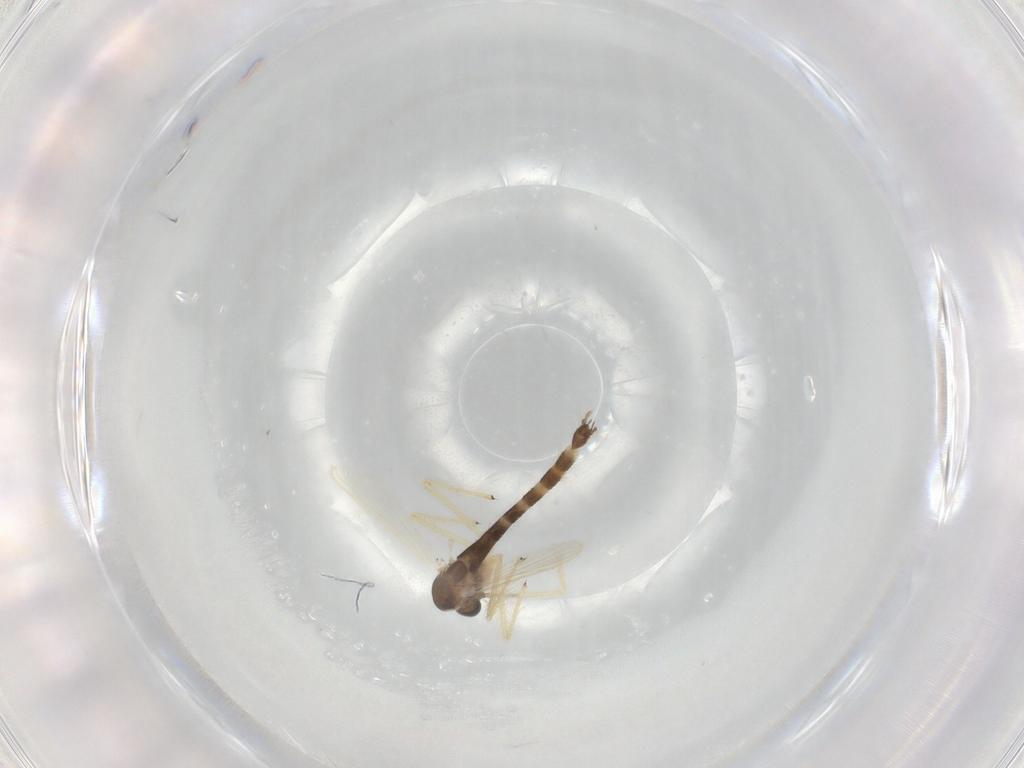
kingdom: Animalia
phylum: Arthropoda
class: Insecta
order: Diptera
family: Chironomidae
